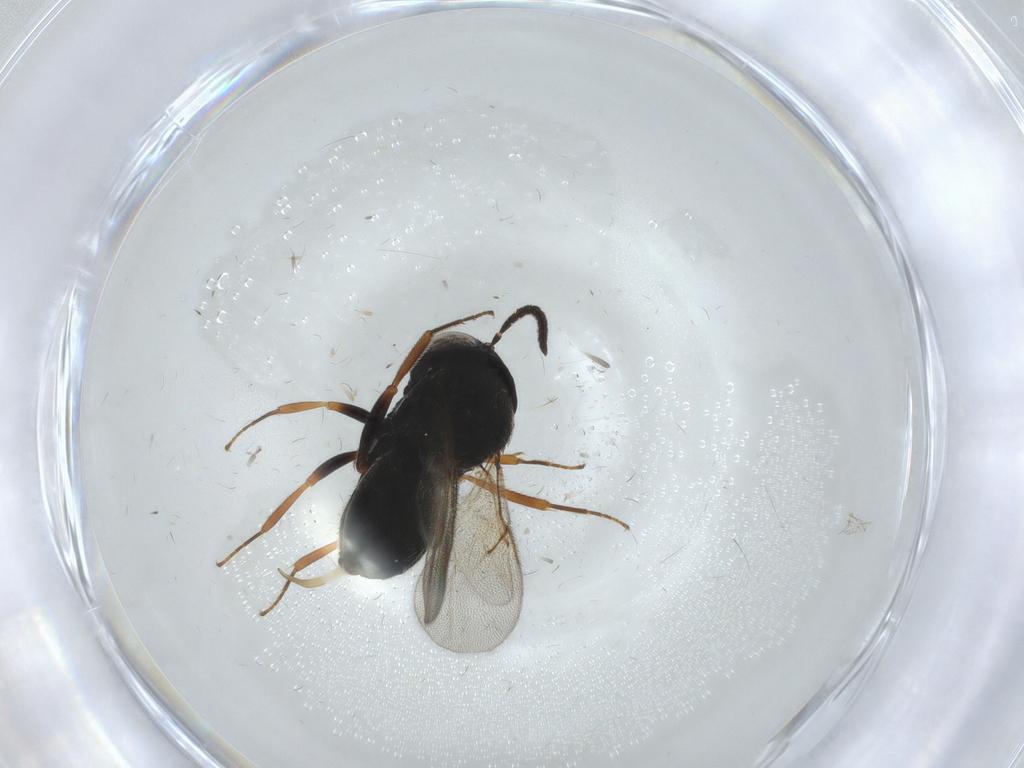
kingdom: Animalia
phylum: Arthropoda
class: Insecta
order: Hymenoptera
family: Scelionidae
